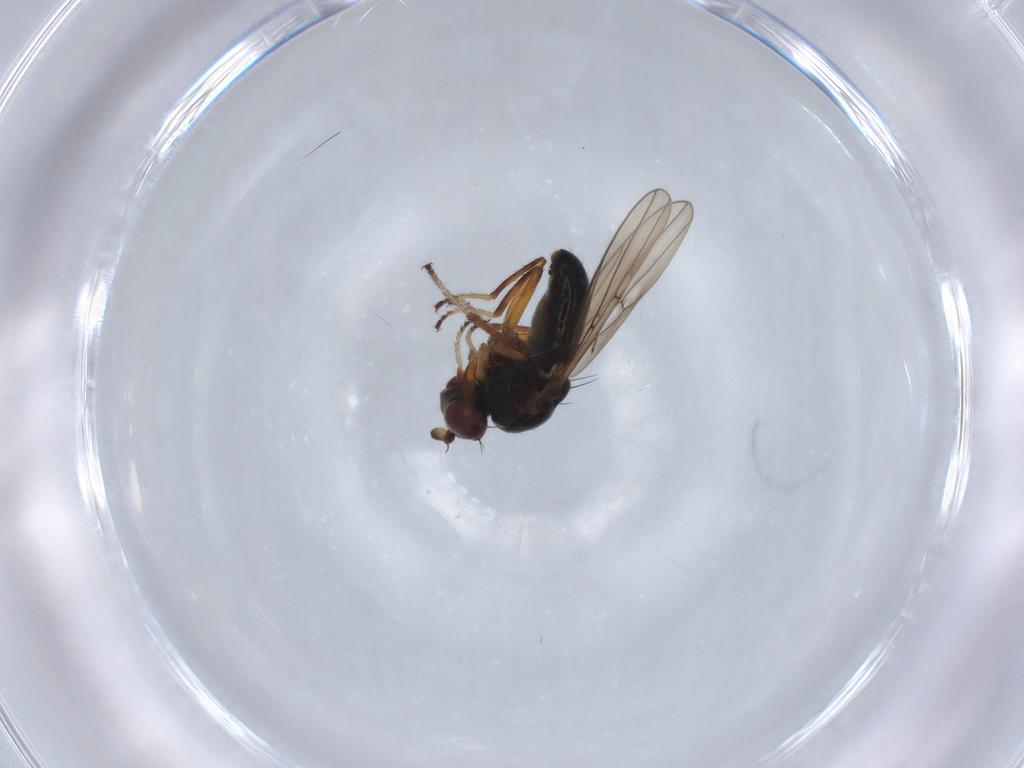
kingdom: Animalia
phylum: Arthropoda
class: Insecta
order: Diptera
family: Ephydridae
